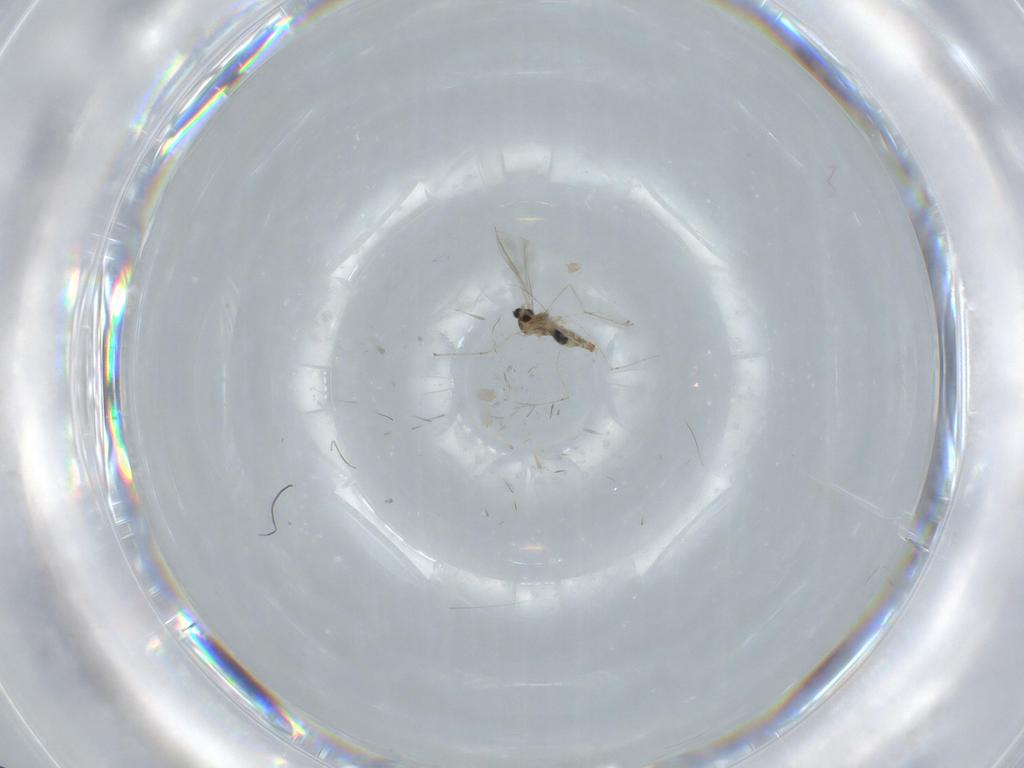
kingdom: Animalia
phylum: Arthropoda
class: Insecta
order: Diptera
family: Cecidomyiidae
